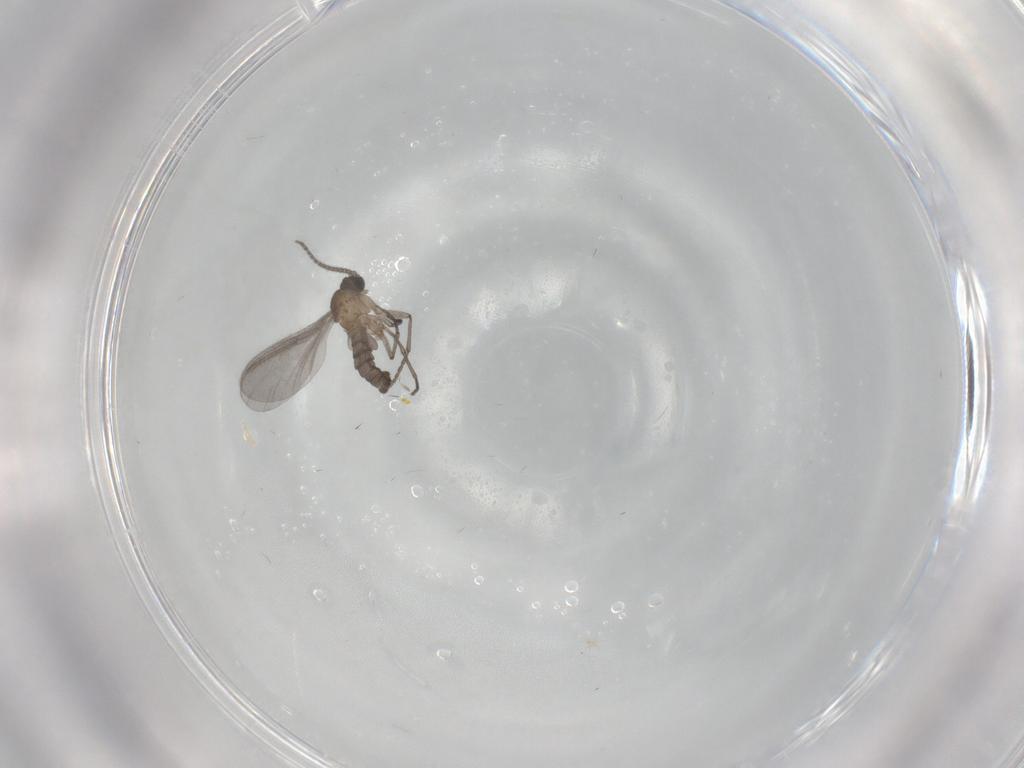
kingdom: Animalia
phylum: Arthropoda
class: Insecta
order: Diptera
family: Sciaridae
